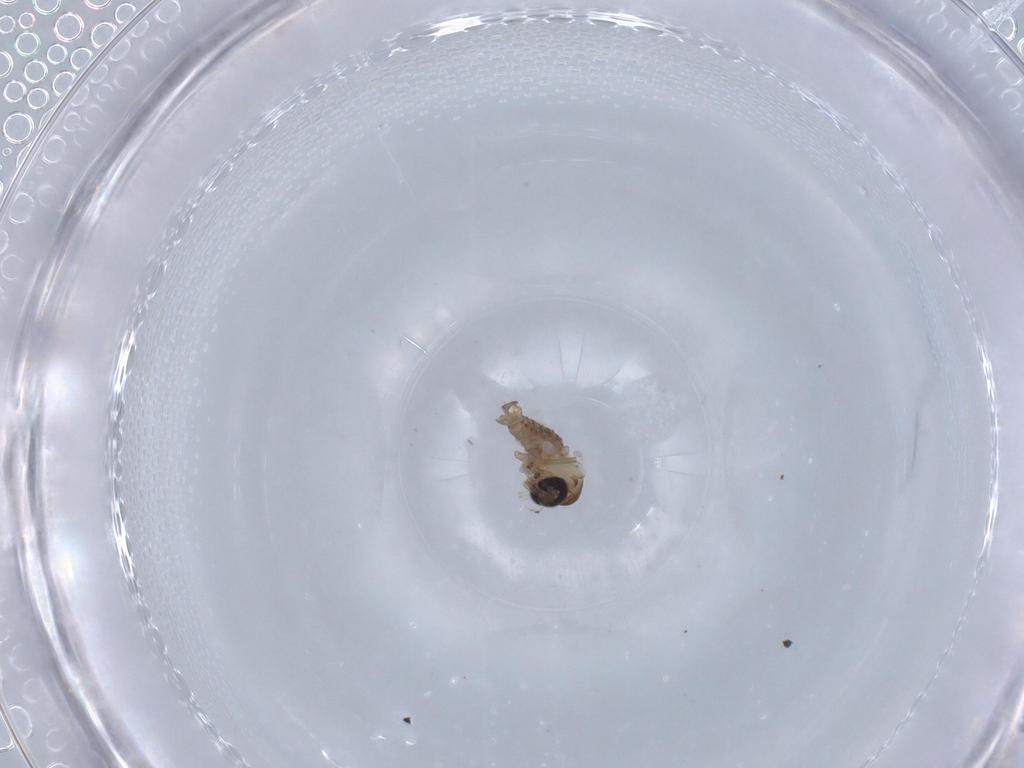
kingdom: Animalia
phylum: Arthropoda
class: Insecta
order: Diptera
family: Psychodidae
